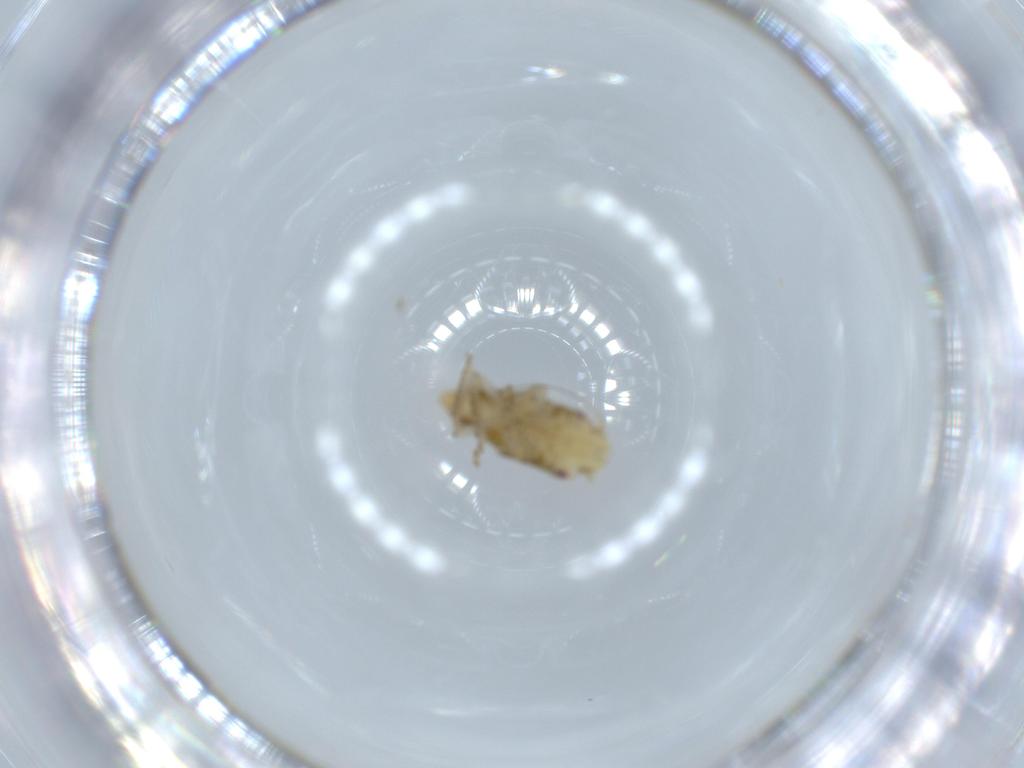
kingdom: Animalia
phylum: Arthropoda
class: Insecta
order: Hemiptera
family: Cicadellidae
